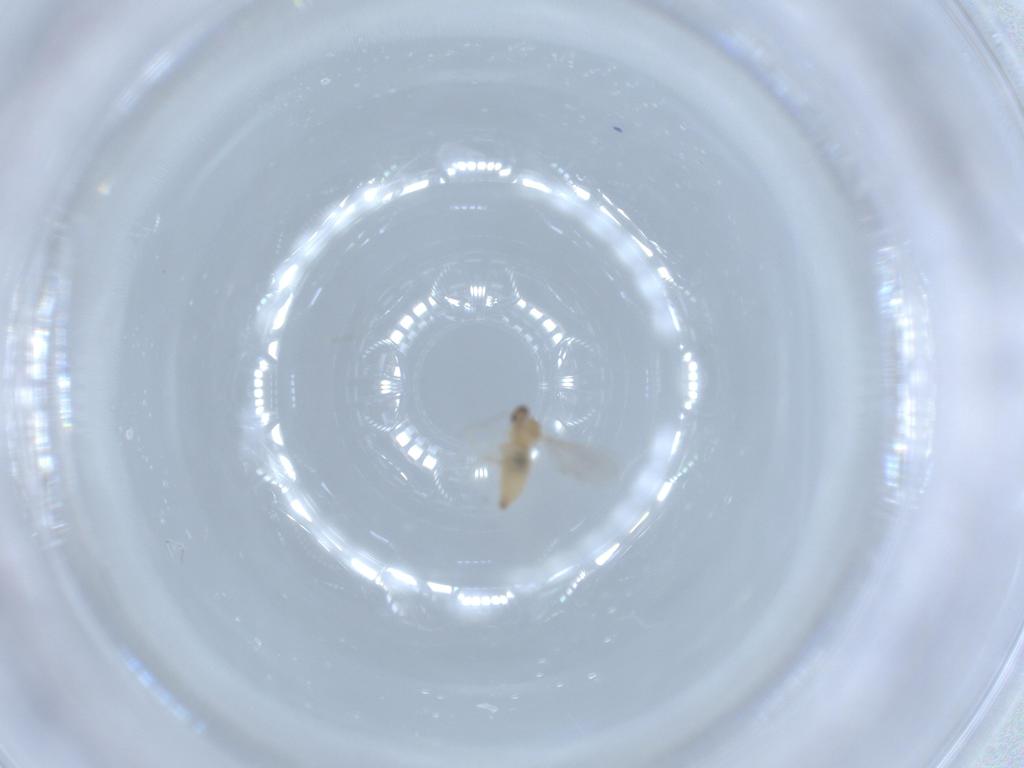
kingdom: Animalia
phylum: Arthropoda
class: Insecta
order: Diptera
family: Cecidomyiidae
